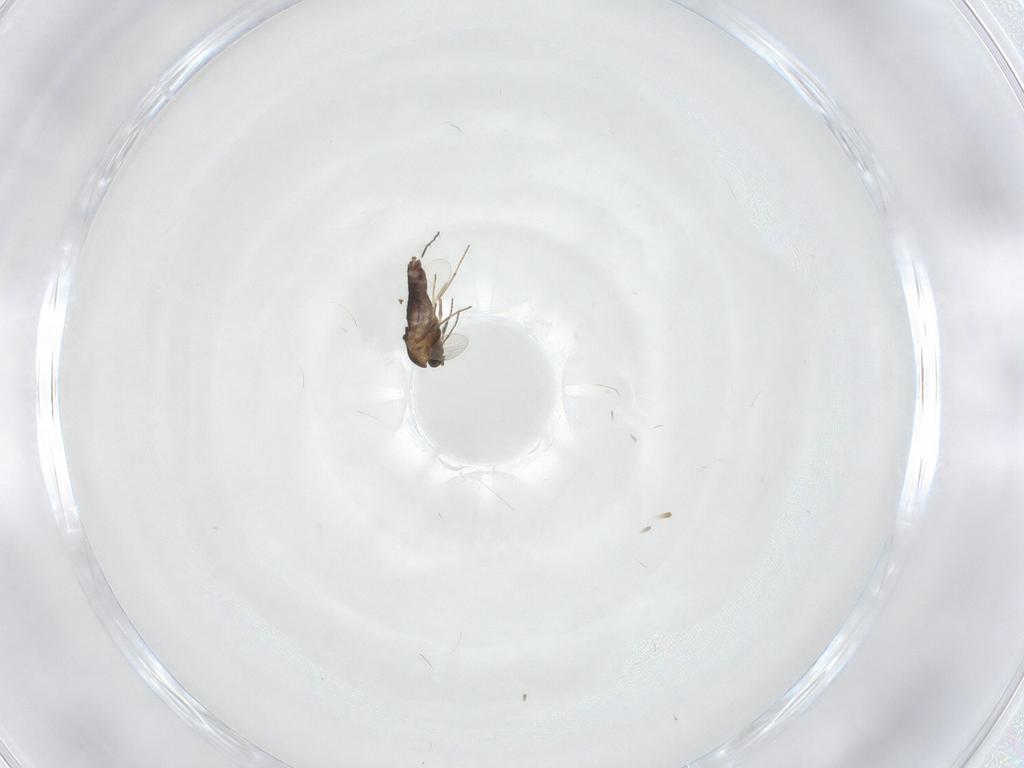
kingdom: Animalia
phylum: Arthropoda
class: Insecta
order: Diptera
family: Chironomidae
